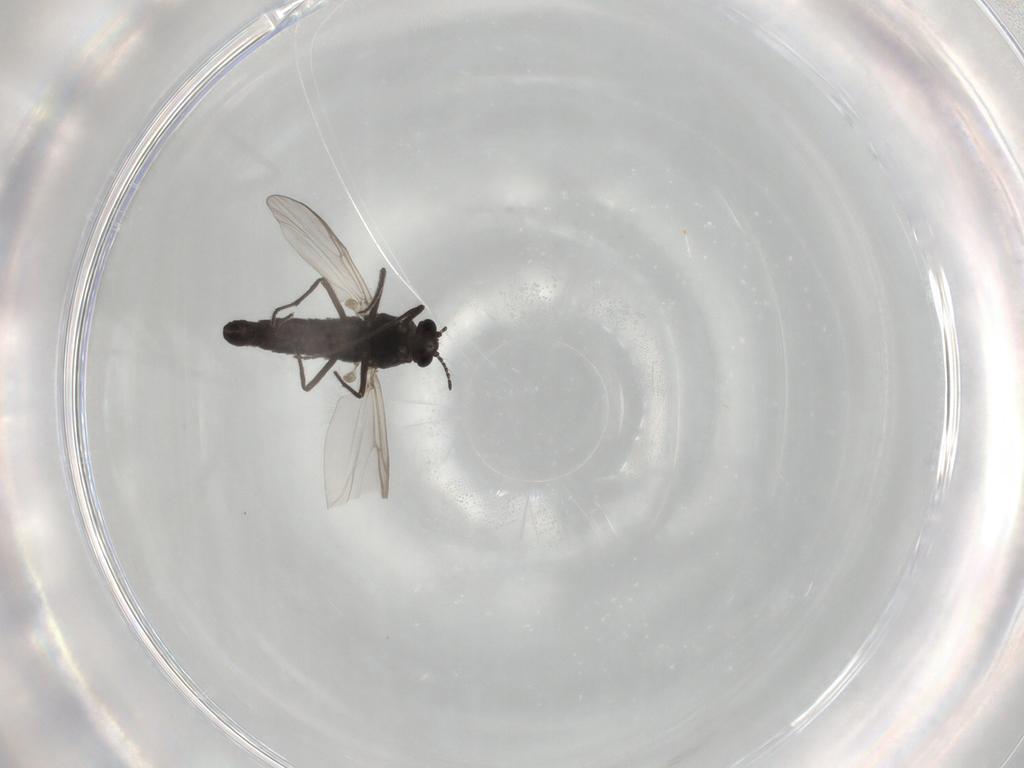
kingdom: Animalia
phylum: Arthropoda
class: Insecta
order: Diptera
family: Chironomidae
